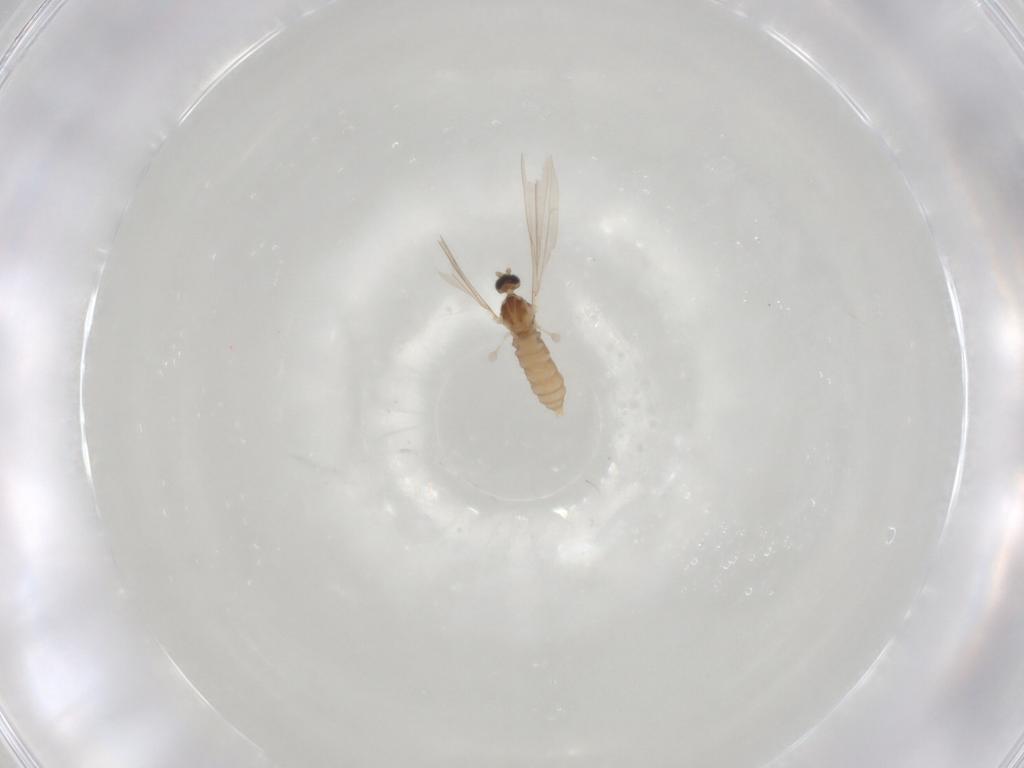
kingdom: Animalia
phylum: Arthropoda
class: Insecta
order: Diptera
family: Cecidomyiidae
